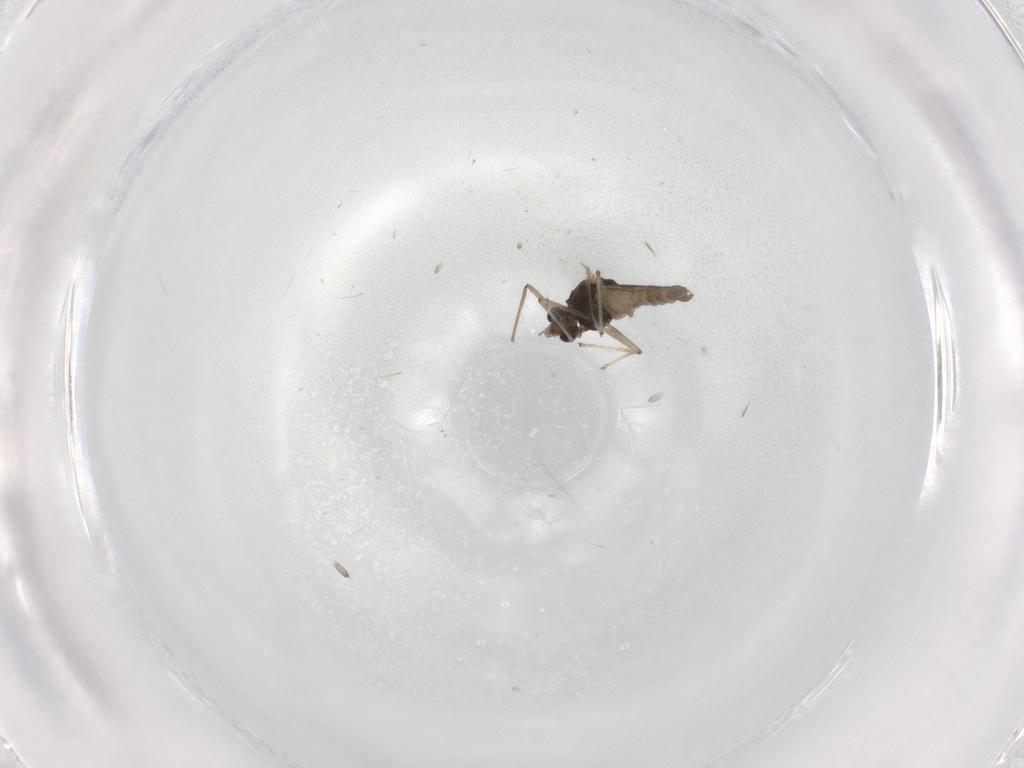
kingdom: Animalia
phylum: Arthropoda
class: Insecta
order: Diptera
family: Chironomidae
